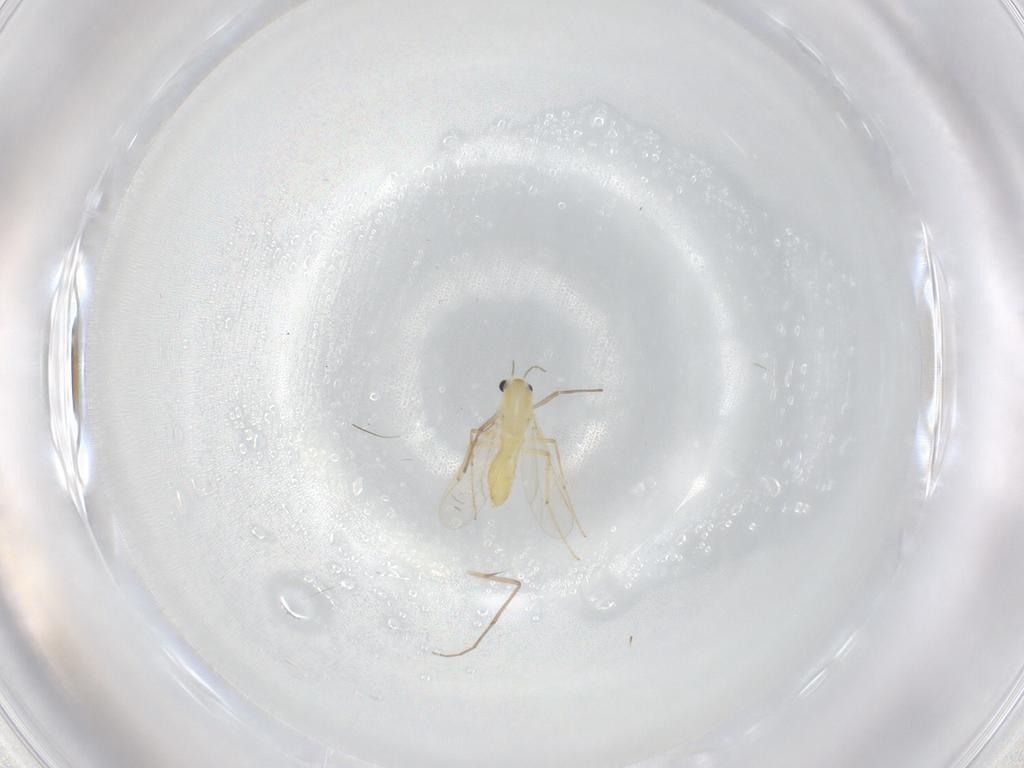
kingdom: Animalia
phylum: Arthropoda
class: Insecta
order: Diptera
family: Chironomidae
